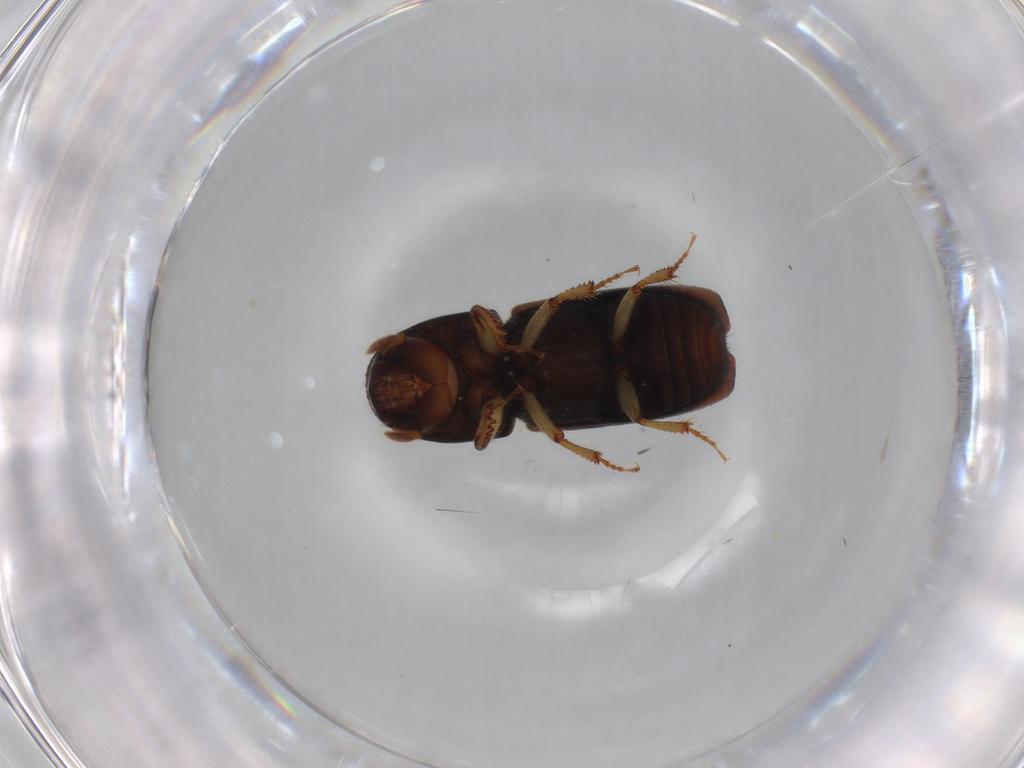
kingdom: Animalia
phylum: Arthropoda
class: Insecta
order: Coleoptera
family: Curculionidae
